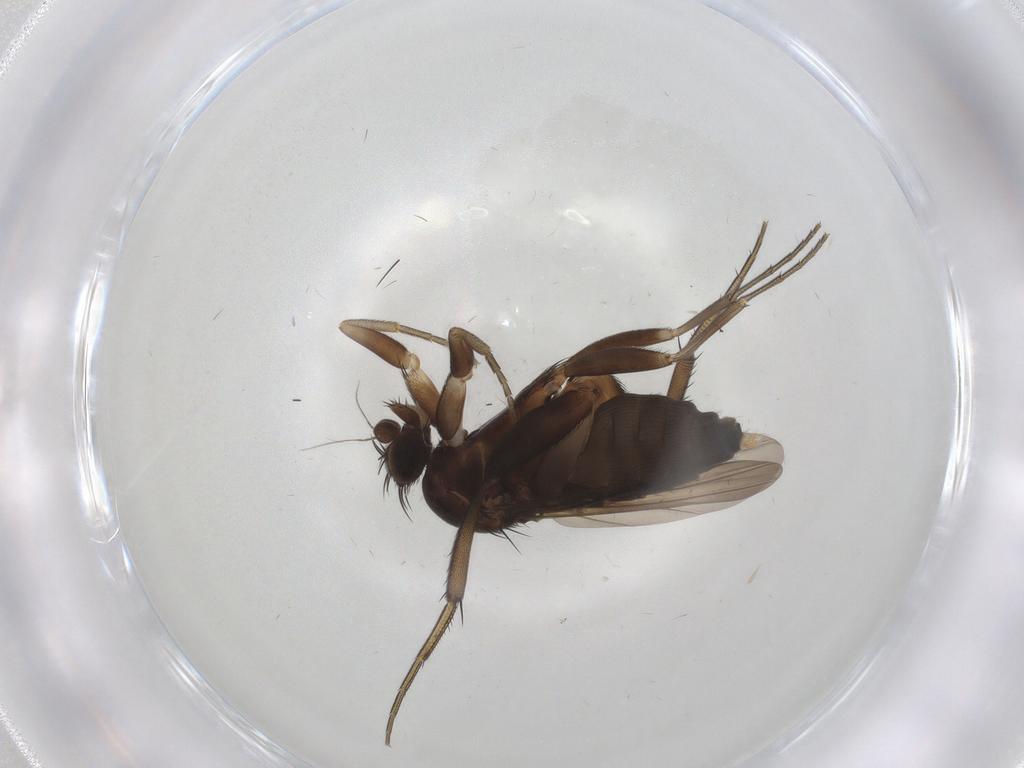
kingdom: Animalia
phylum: Arthropoda
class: Insecta
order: Diptera
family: Phoridae
